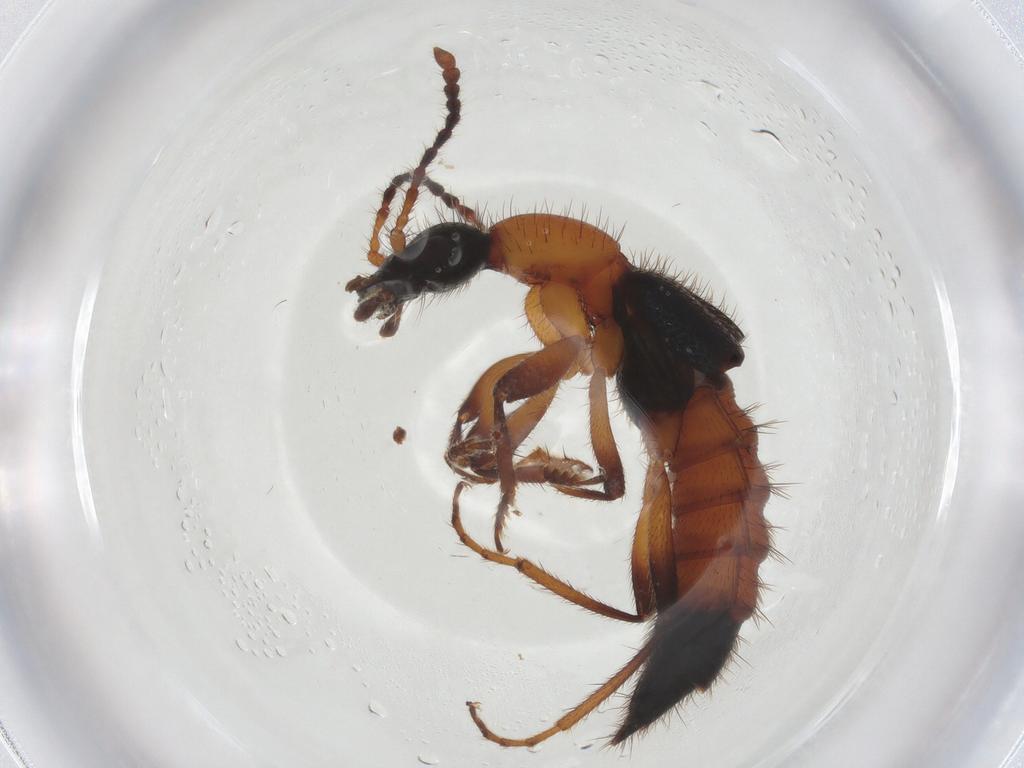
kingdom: Animalia
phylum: Arthropoda
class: Insecta
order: Coleoptera
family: Staphylinidae
